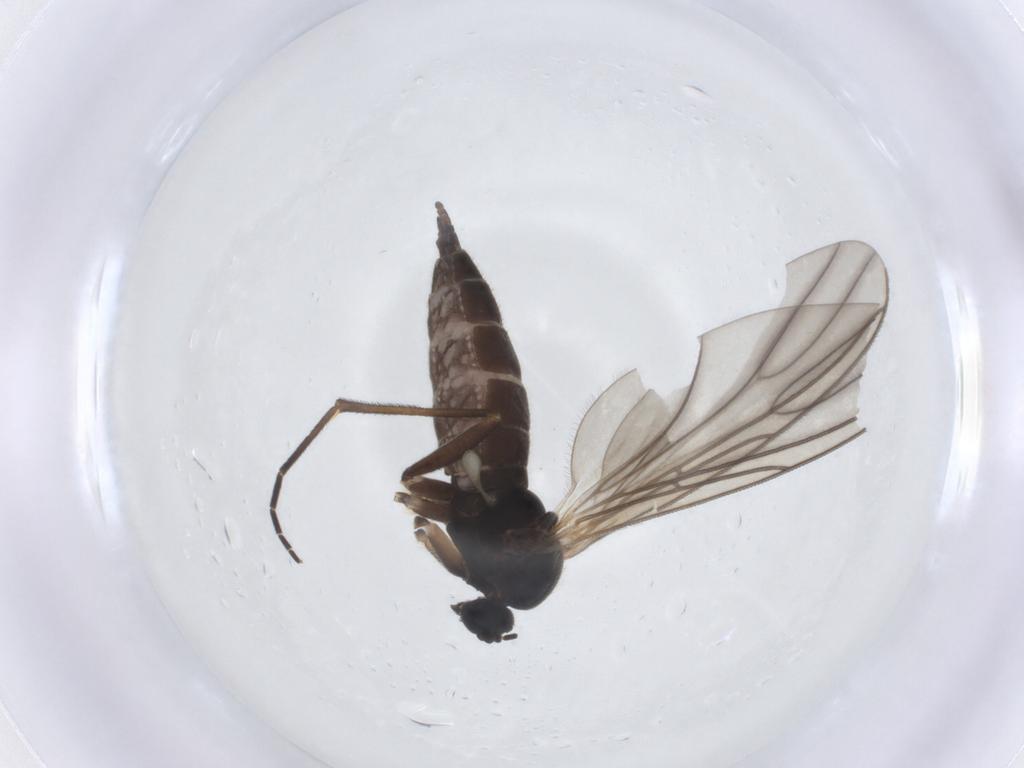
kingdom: Animalia
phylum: Arthropoda
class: Insecta
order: Diptera
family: Sciaridae
